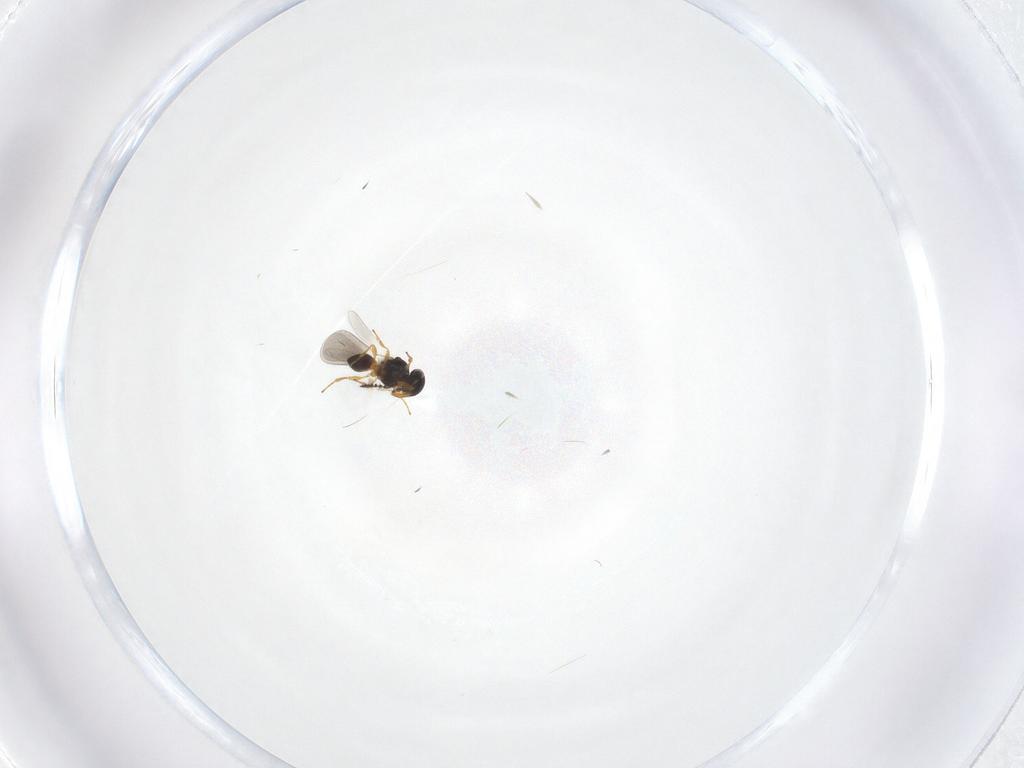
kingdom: Animalia
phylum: Arthropoda
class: Insecta
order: Hymenoptera
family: Platygastridae
